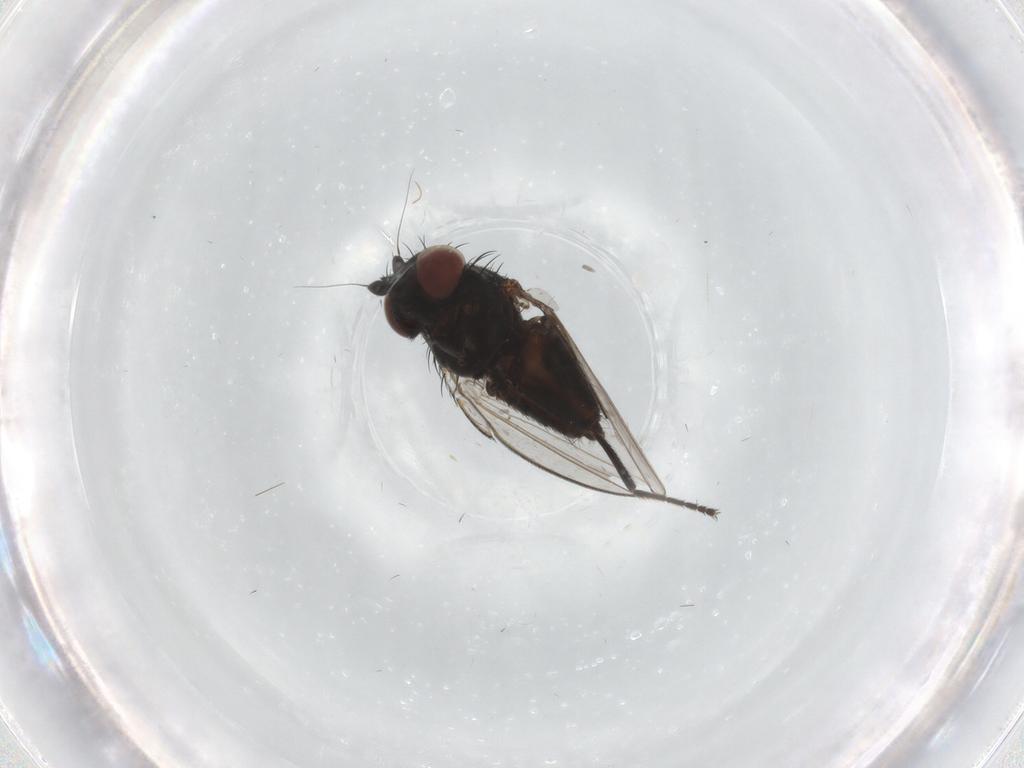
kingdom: Animalia
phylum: Arthropoda
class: Insecta
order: Diptera
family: Milichiidae
